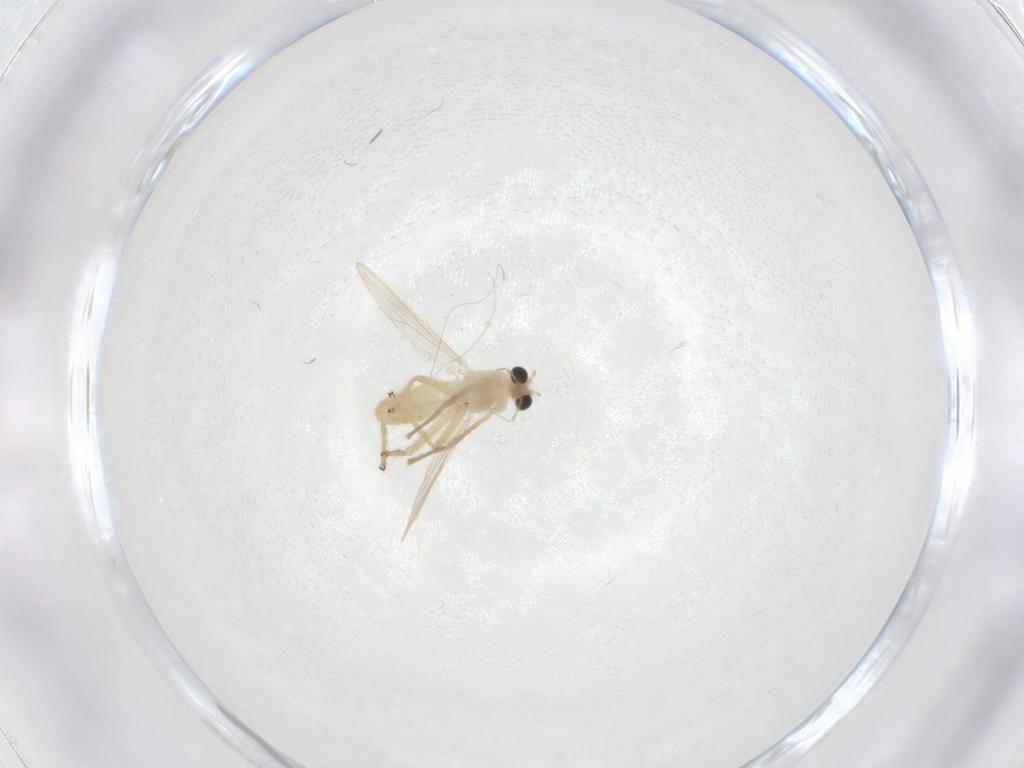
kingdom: Animalia
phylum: Arthropoda
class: Insecta
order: Diptera
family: Chironomidae
